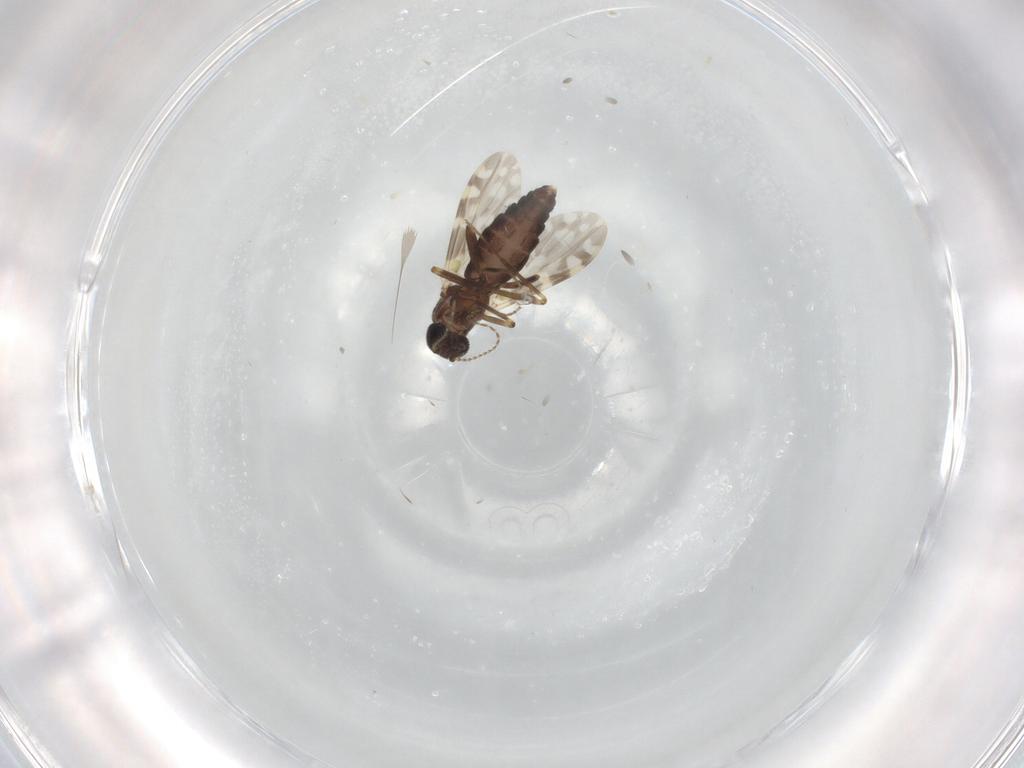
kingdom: Animalia
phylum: Arthropoda
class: Insecta
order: Diptera
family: Ceratopogonidae
